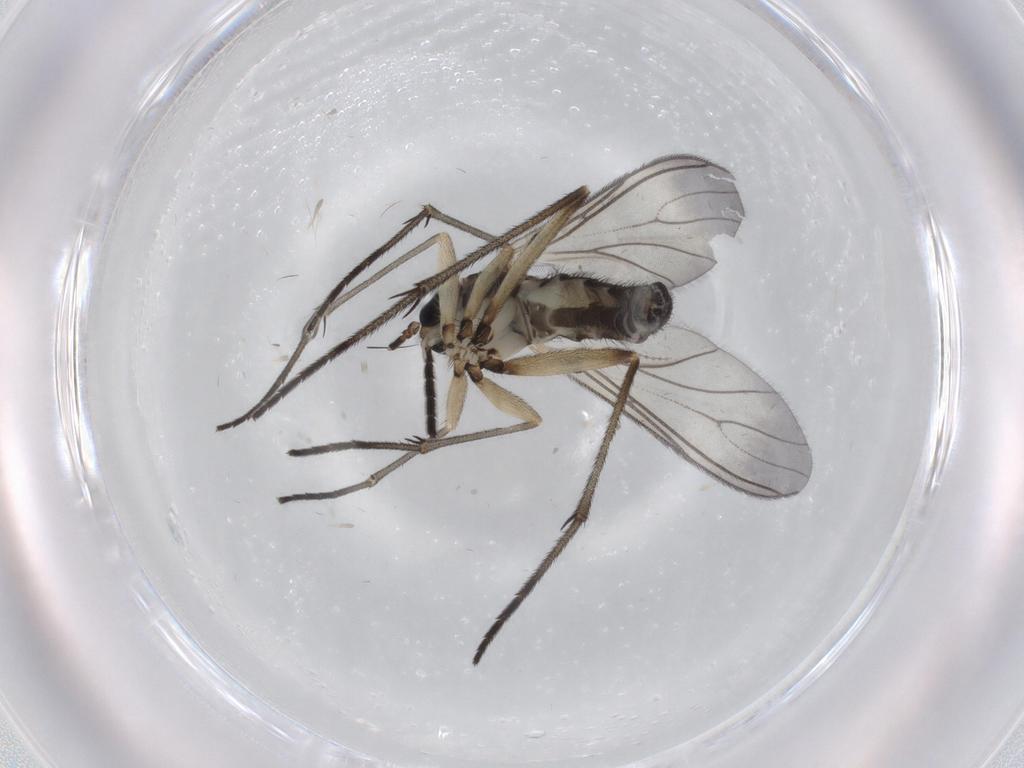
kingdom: Animalia
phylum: Arthropoda
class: Insecta
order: Diptera
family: Sciaridae
